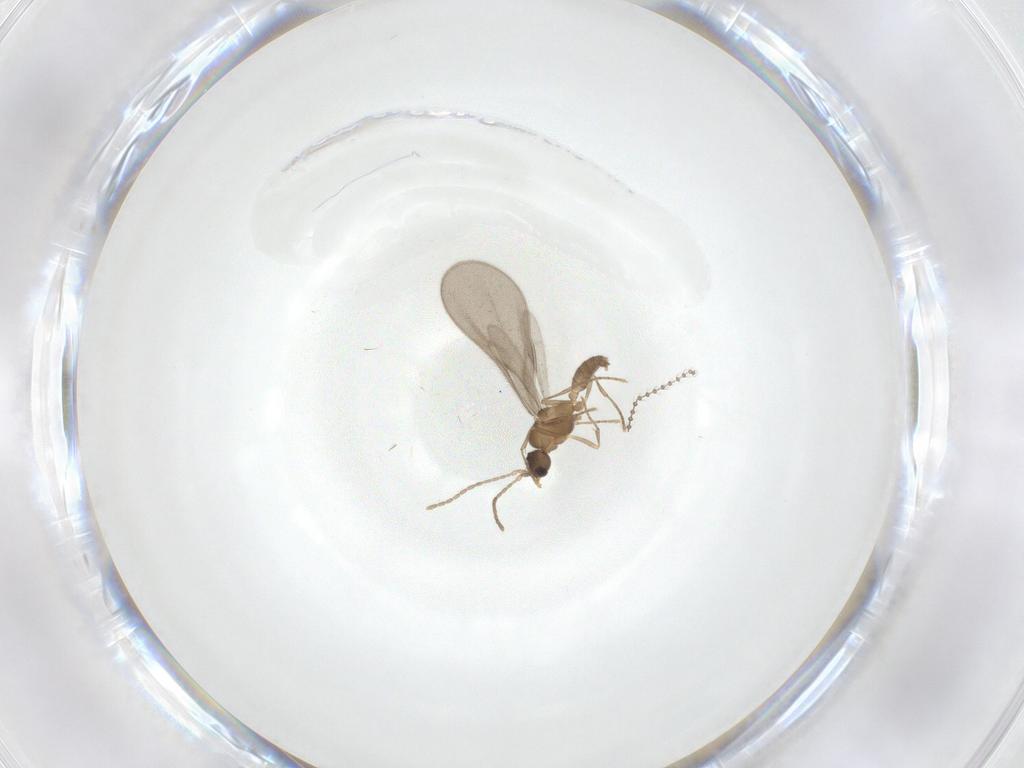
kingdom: Animalia
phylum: Arthropoda
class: Insecta
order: Hymenoptera
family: Formicidae
